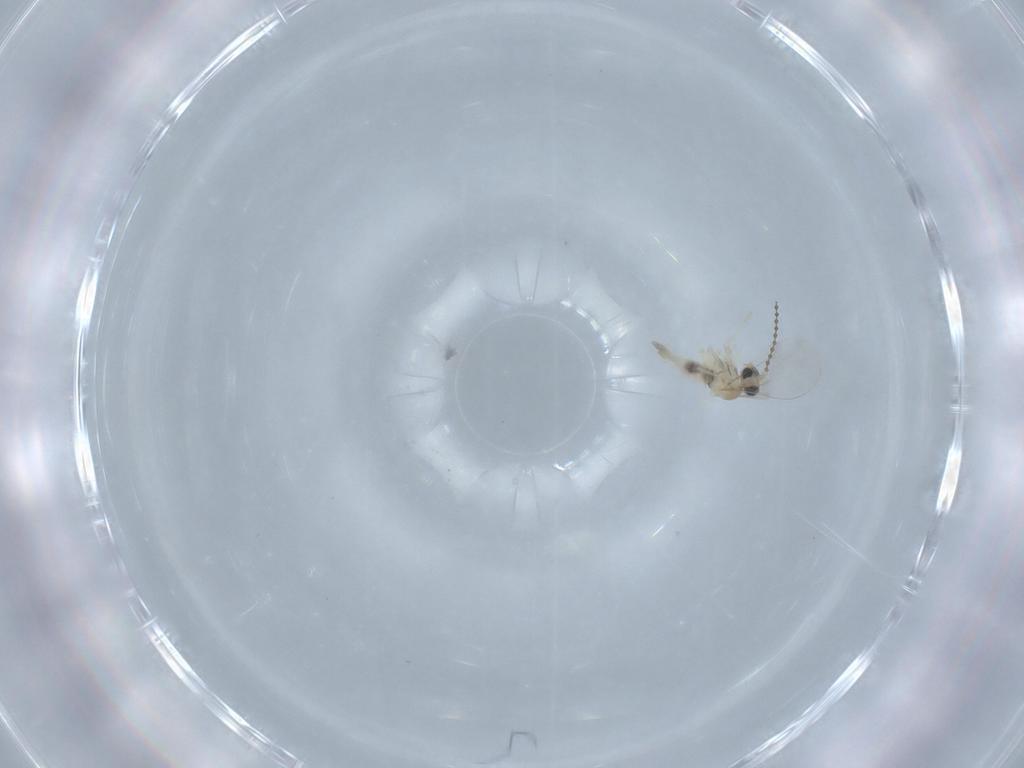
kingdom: Animalia
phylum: Arthropoda
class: Insecta
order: Diptera
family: Cecidomyiidae
